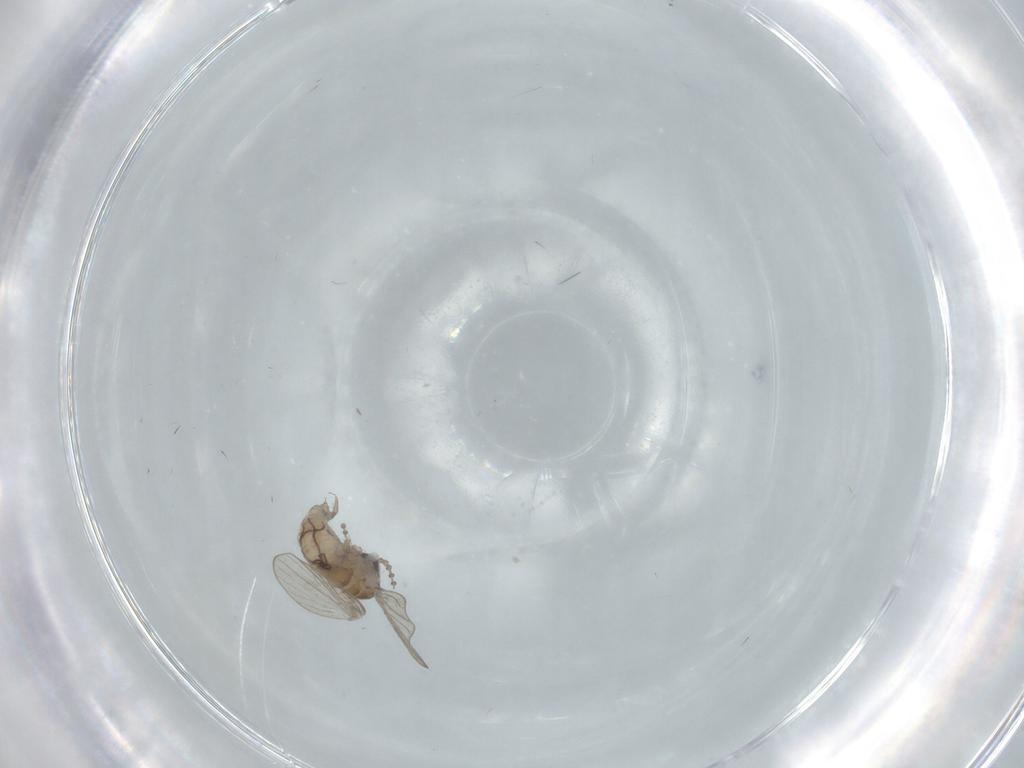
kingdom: Animalia
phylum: Arthropoda
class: Insecta
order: Diptera
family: Psychodidae
